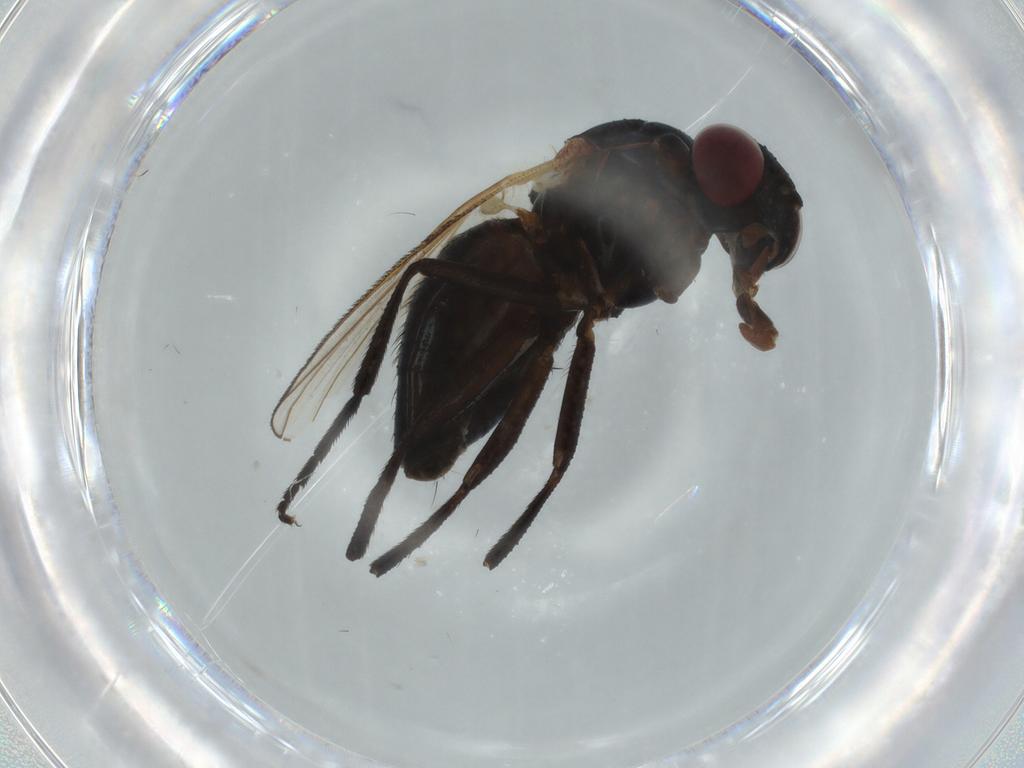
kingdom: Animalia
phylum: Arthropoda
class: Insecta
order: Diptera
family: Fannia
